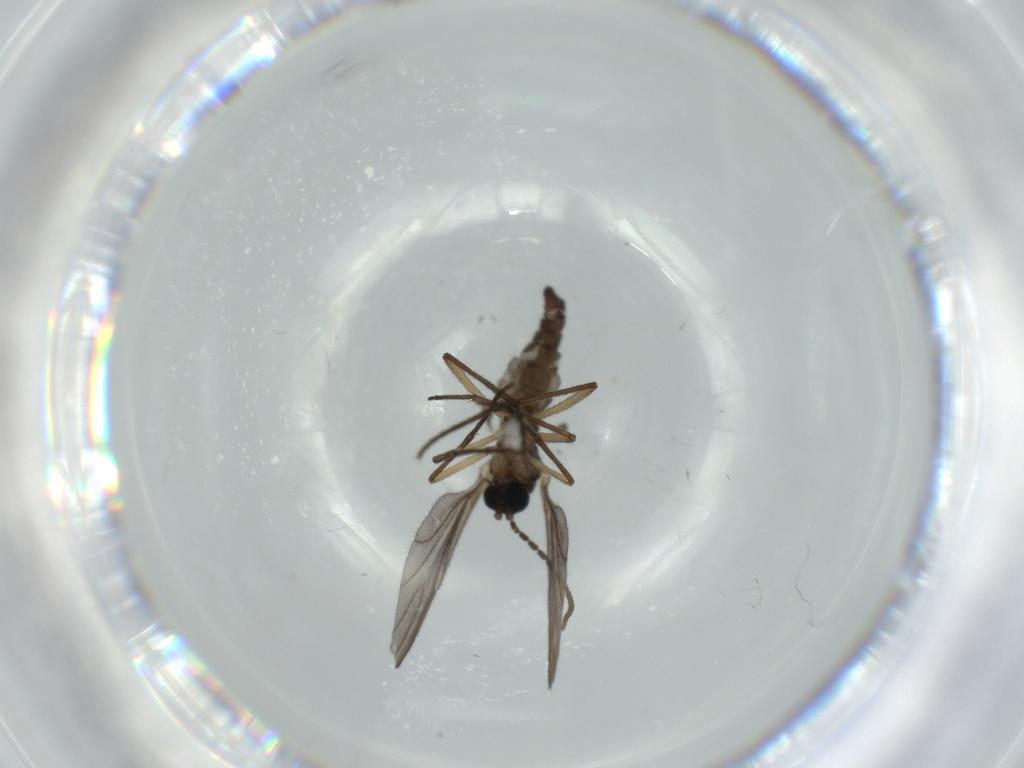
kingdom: Animalia
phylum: Arthropoda
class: Insecta
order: Diptera
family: Sciaridae
